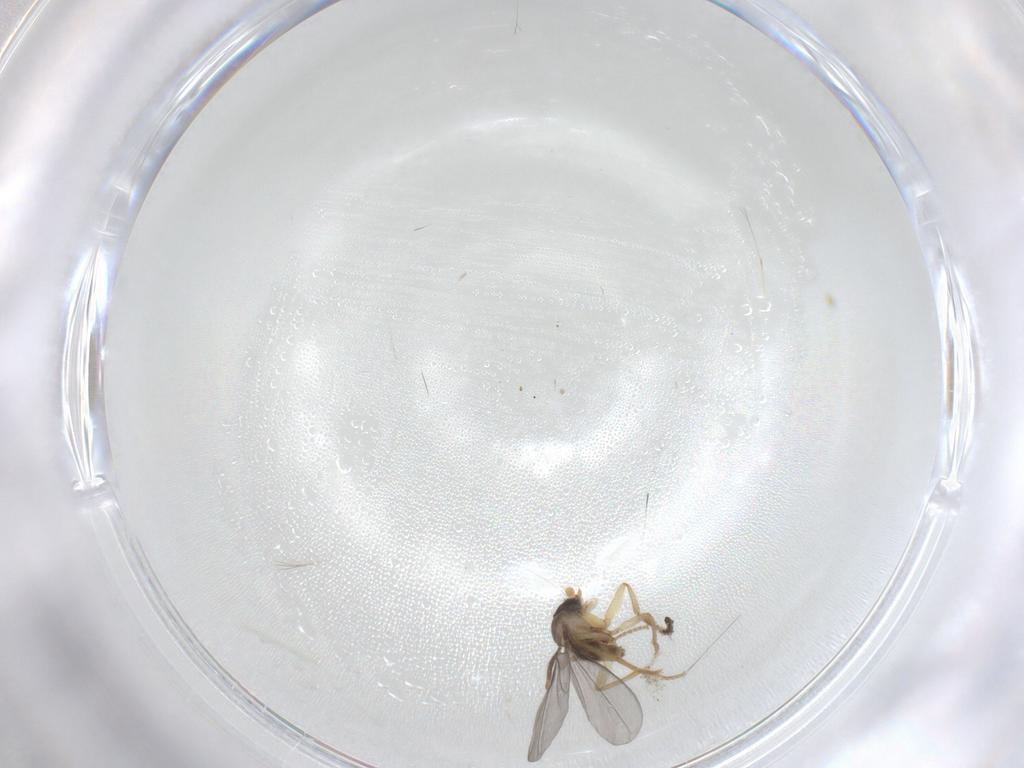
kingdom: Animalia
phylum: Arthropoda
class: Insecta
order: Diptera
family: Phoridae
